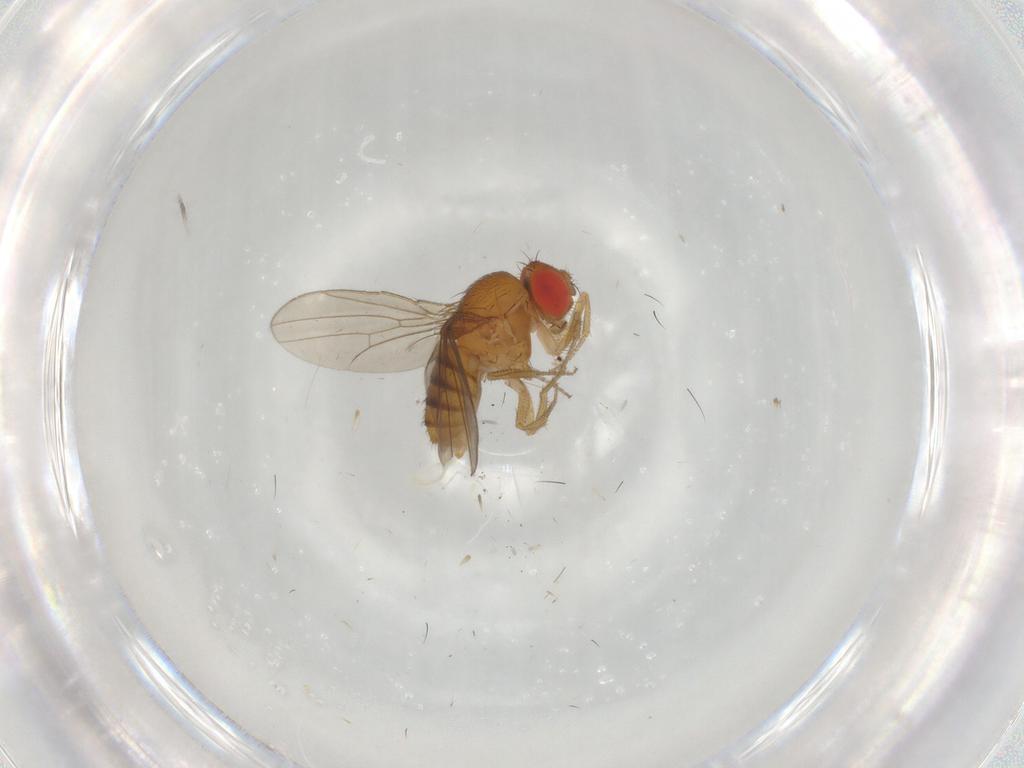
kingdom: Animalia
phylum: Arthropoda
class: Insecta
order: Diptera
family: Drosophilidae
